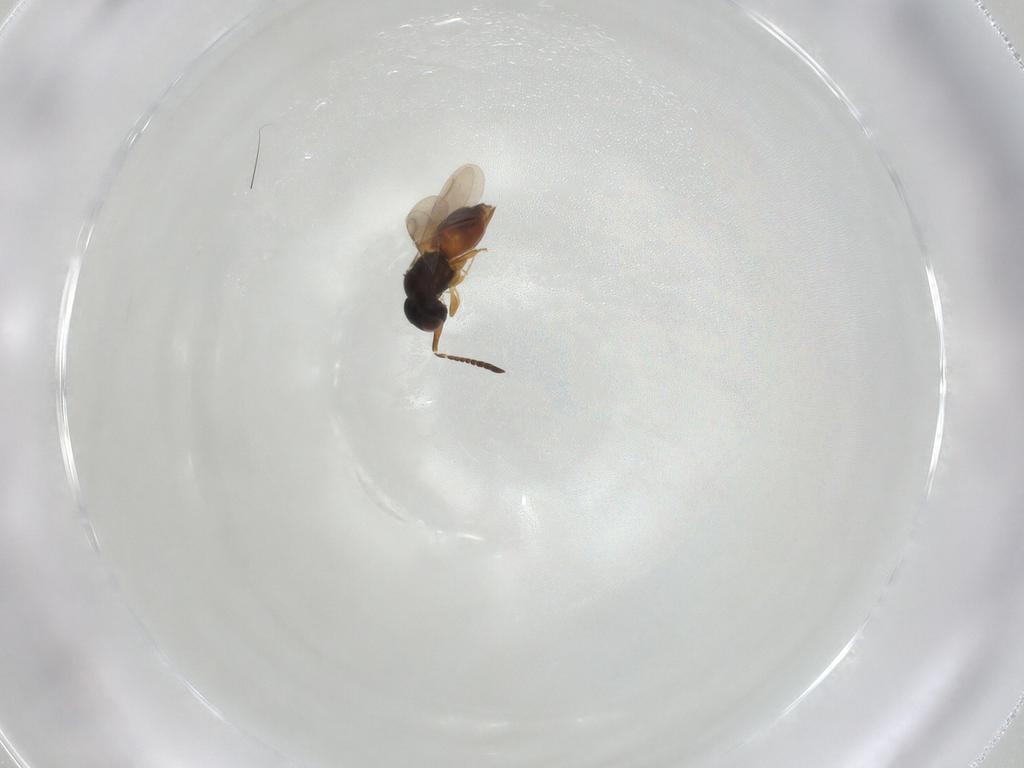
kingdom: Animalia
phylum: Arthropoda
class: Insecta
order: Hymenoptera
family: Ceraphronidae
